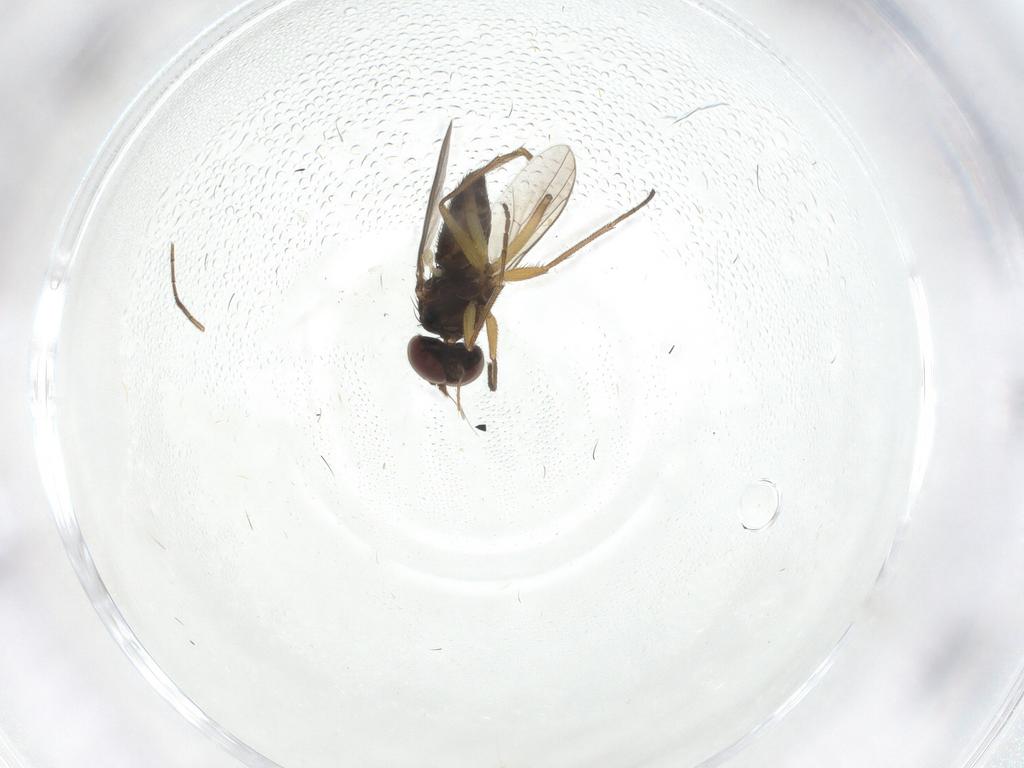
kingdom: Animalia
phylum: Arthropoda
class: Insecta
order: Diptera
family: Dolichopodidae
